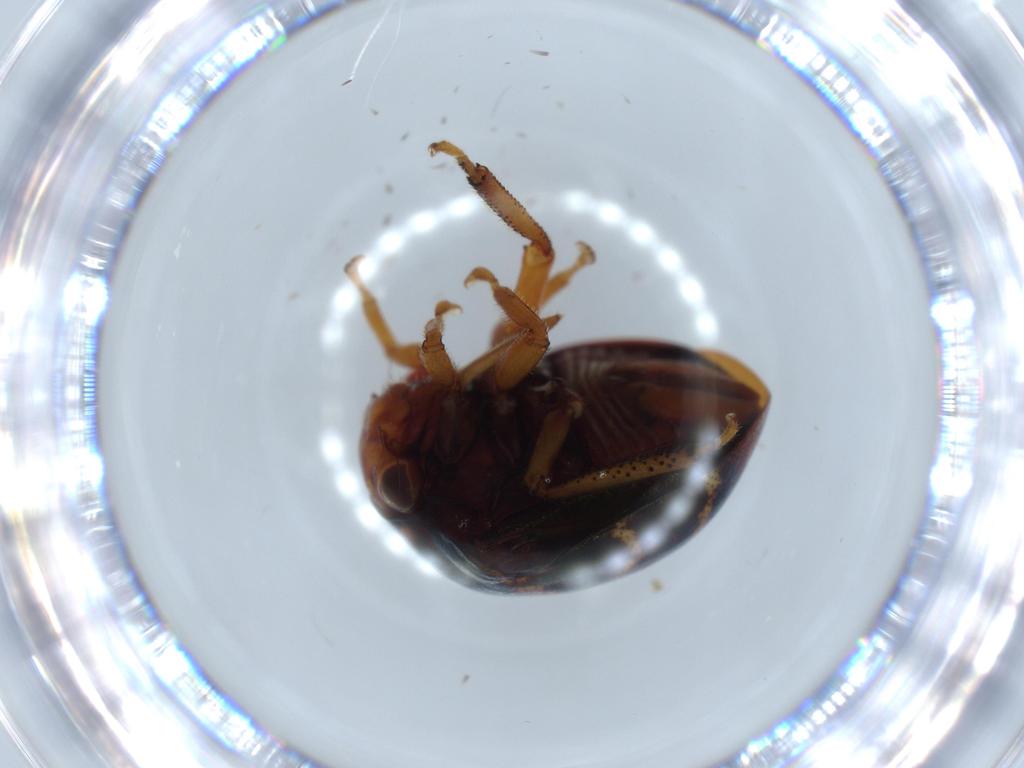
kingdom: Animalia
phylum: Arthropoda
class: Insecta
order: Hemiptera
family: Membracidae
